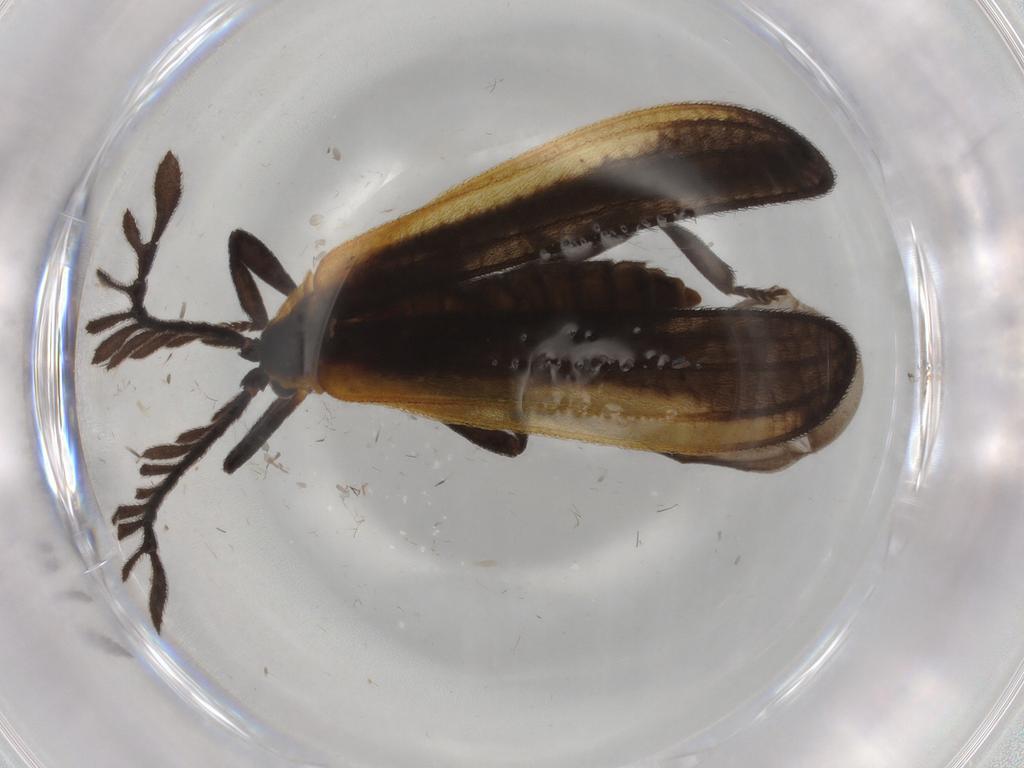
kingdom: Animalia
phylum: Arthropoda
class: Insecta
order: Coleoptera
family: Lycidae
